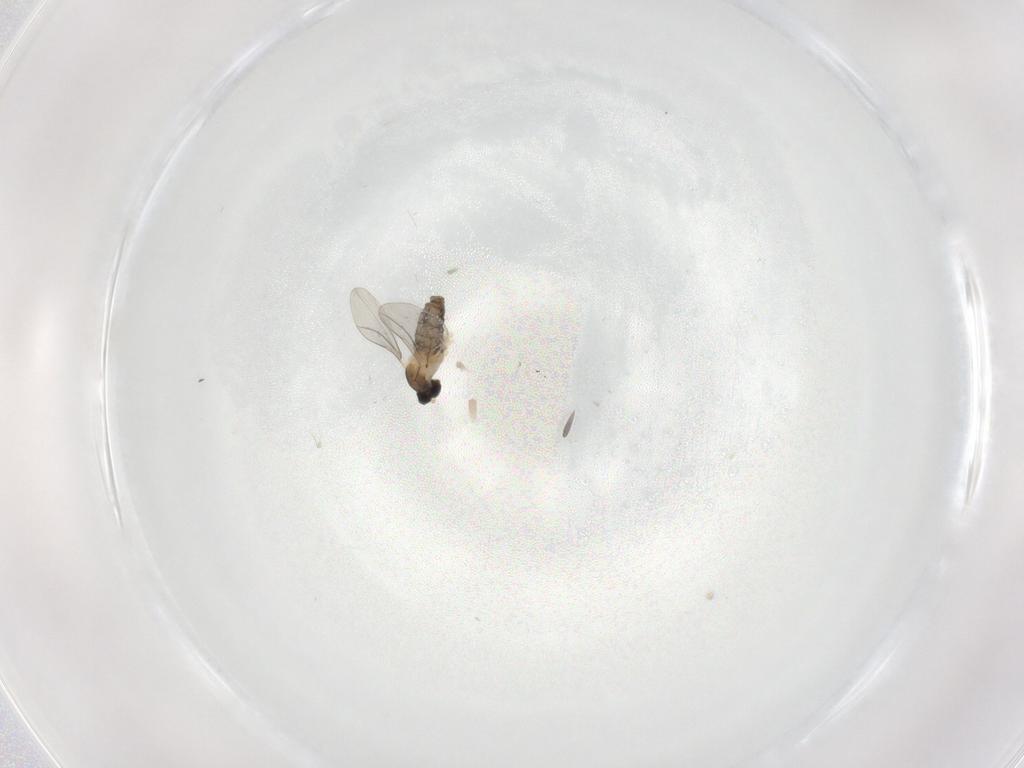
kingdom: Animalia
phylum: Arthropoda
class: Insecta
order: Diptera
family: Cecidomyiidae
